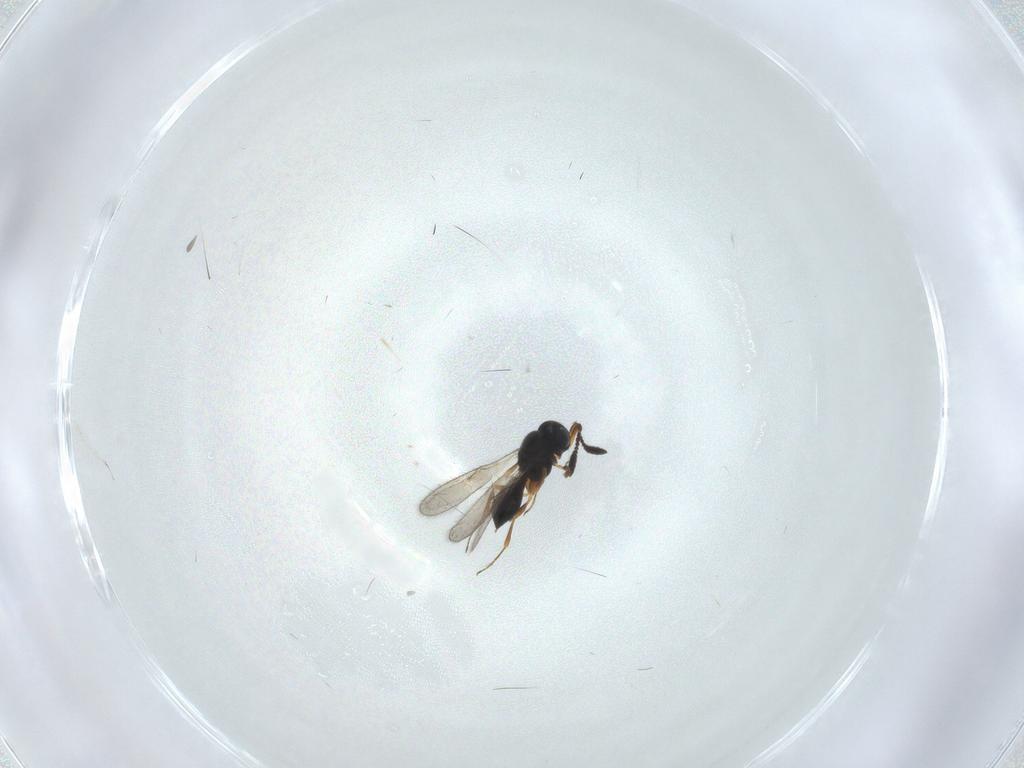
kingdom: Animalia
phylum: Arthropoda
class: Insecta
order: Hymenoptera
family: Scelionidae
